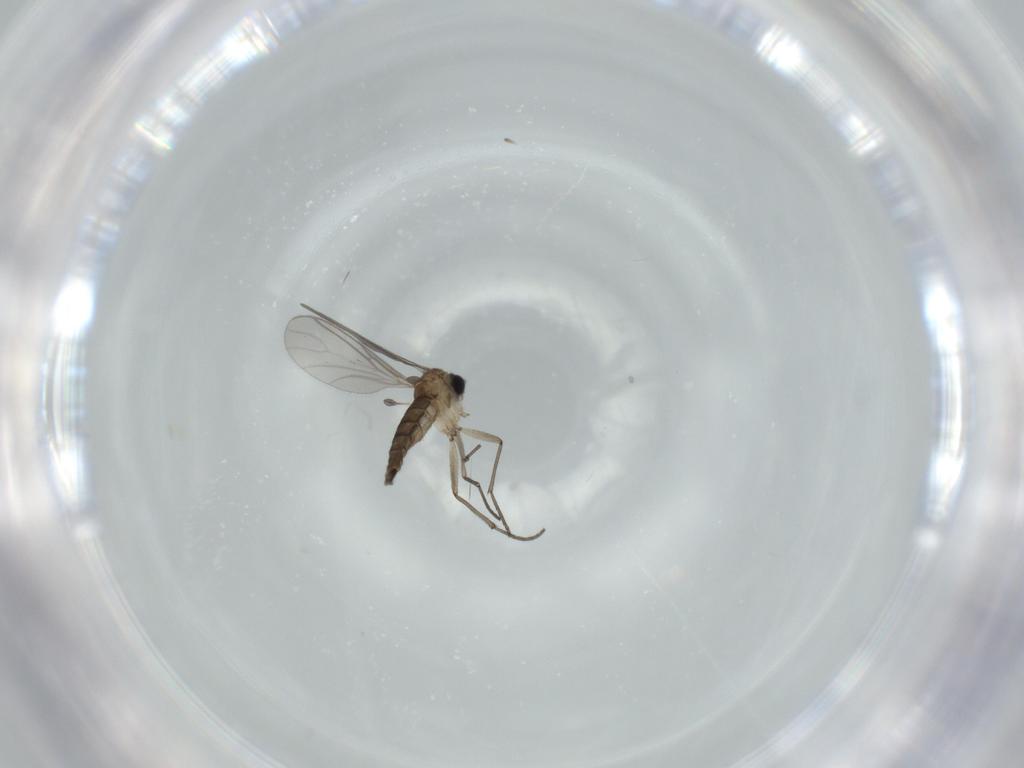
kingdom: Animalia
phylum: Arthropoda
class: Insecta
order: Diptera
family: Sciaridae
